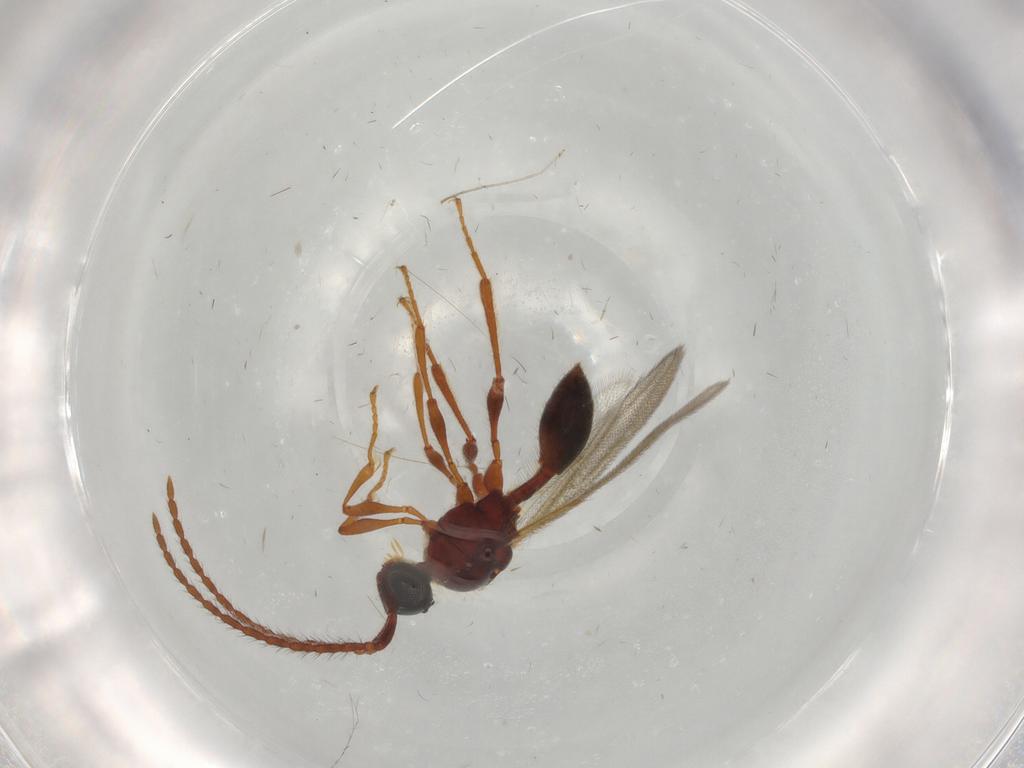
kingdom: Animalia
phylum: Arthropoda
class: Insecta
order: Hymenoptera
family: Diapriidae
